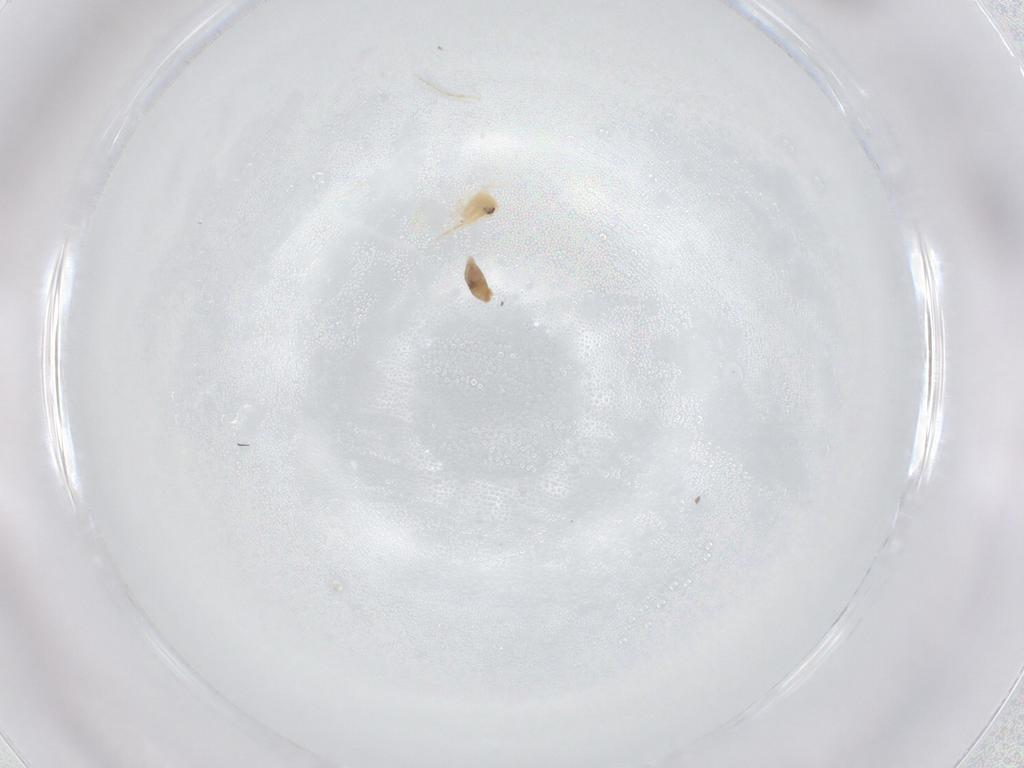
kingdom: Animalia
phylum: Arthropoda
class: Insecta
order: Hemiptera
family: Aleyrodidae
